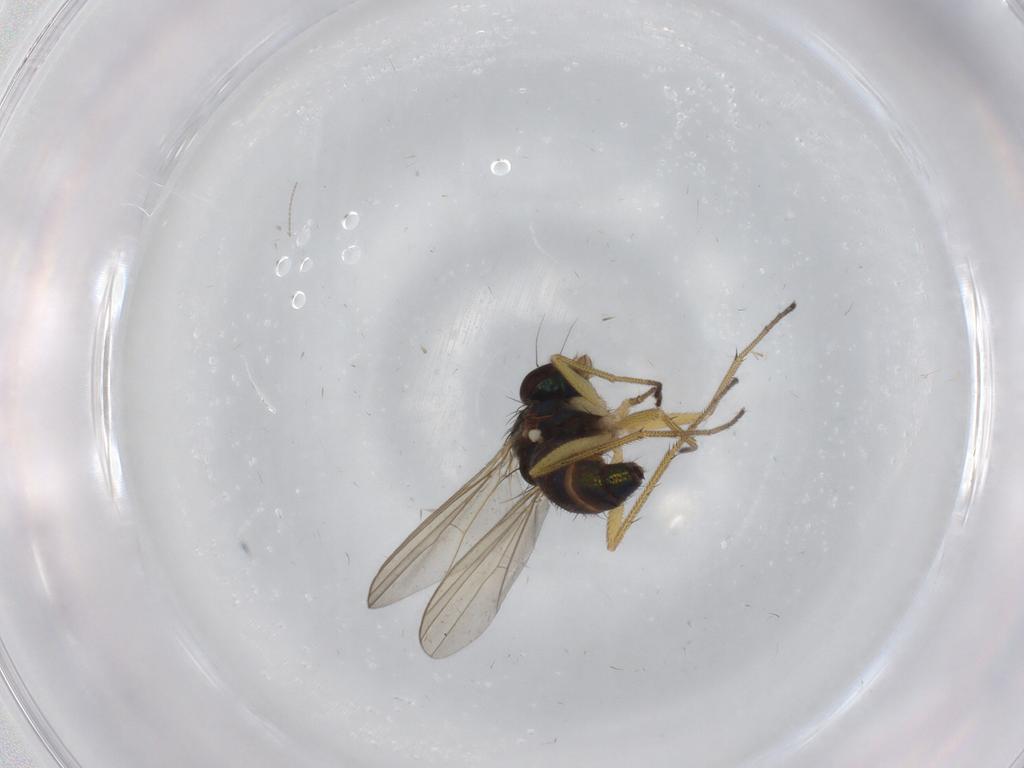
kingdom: Animalia
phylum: Arthropoda
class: Insecta
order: Diptera
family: Dolichopodidae
